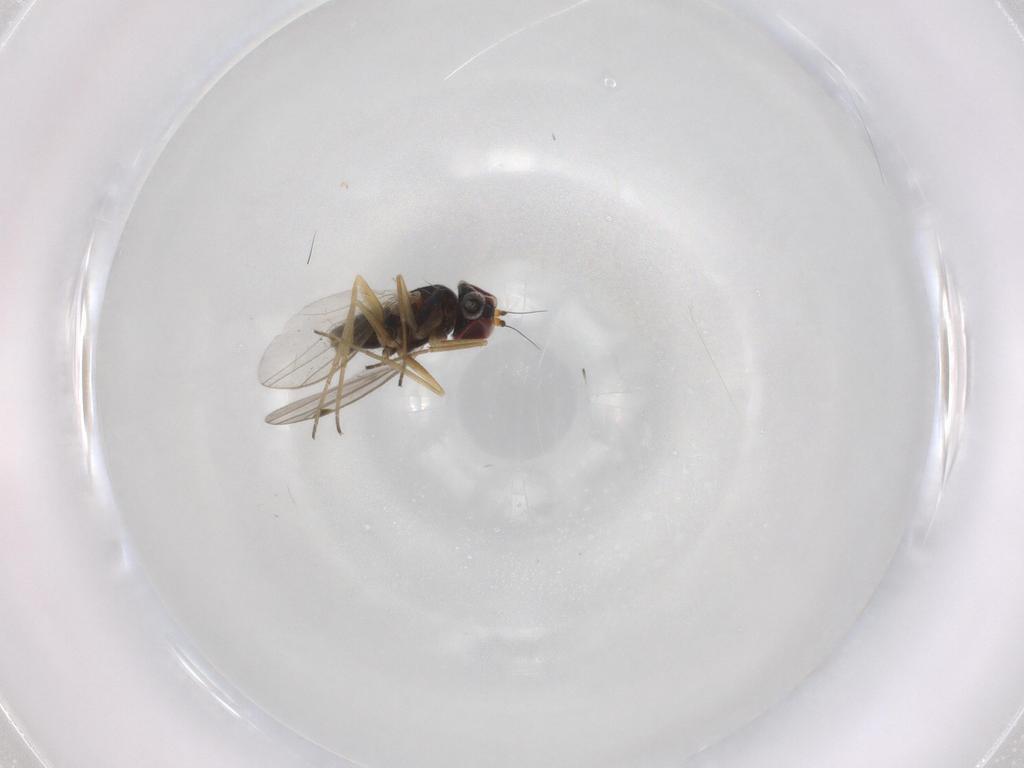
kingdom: Animalia
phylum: Arthropoda
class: Insecta
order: Diptera
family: Dolichopodidae
